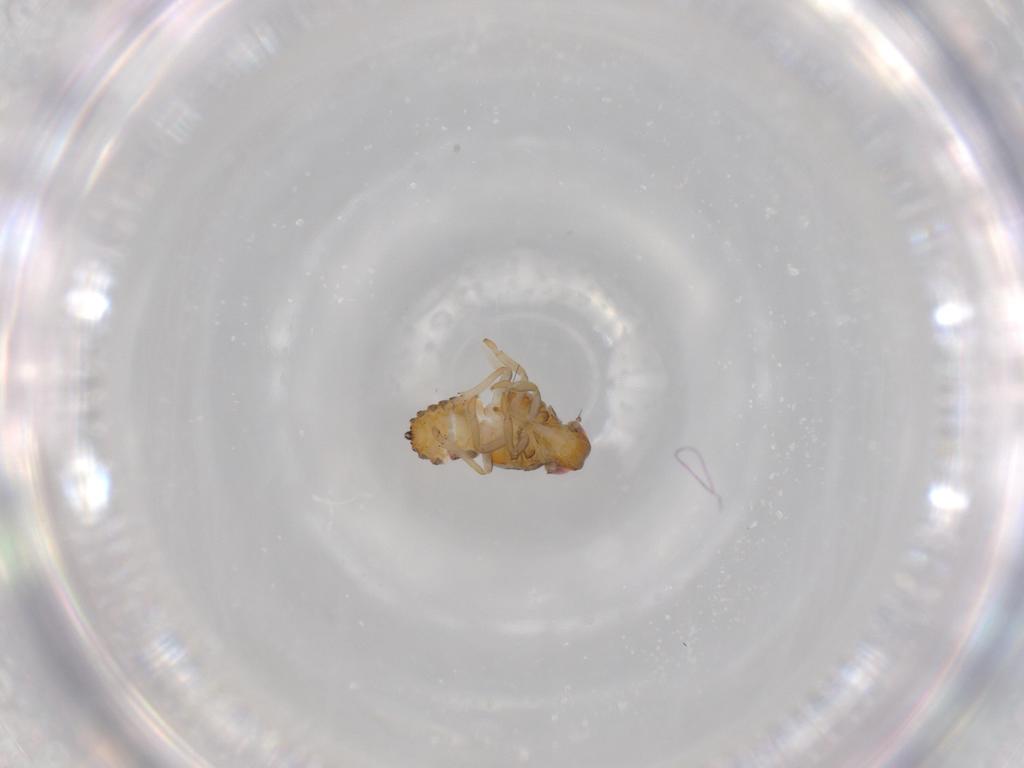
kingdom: Animalia
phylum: Arthropoda
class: Insecta
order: Hemiptera
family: Issidae
